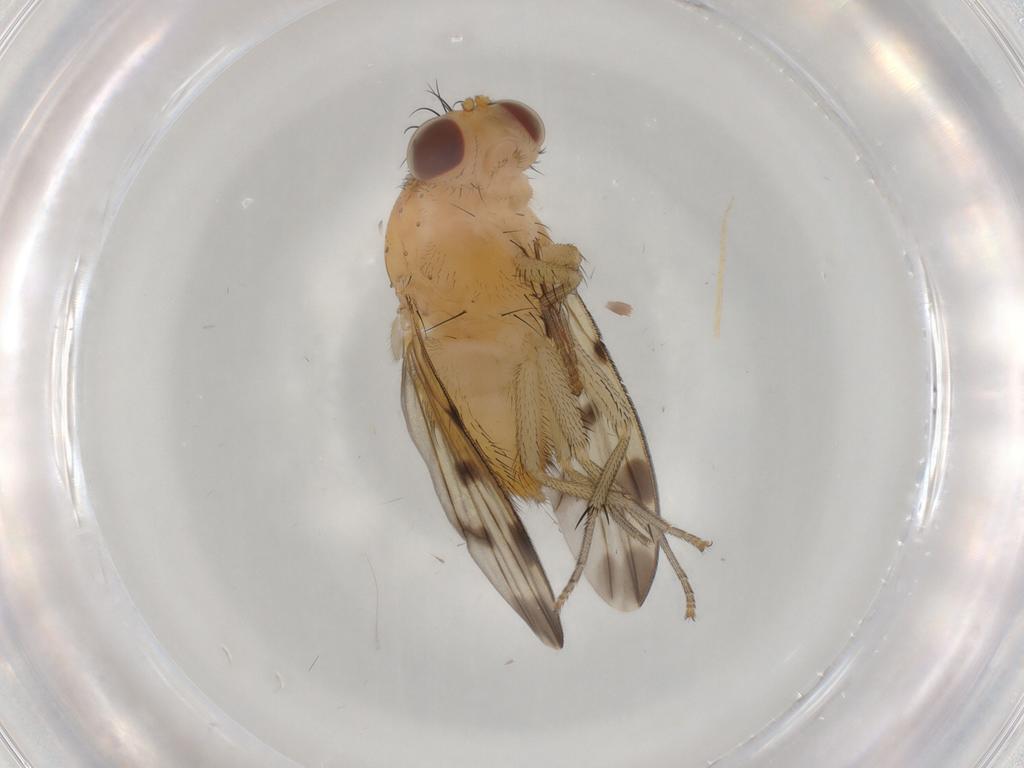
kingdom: Animalia
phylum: Arthropoda
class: Insecta
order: Diptera
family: Lauxaniidae
